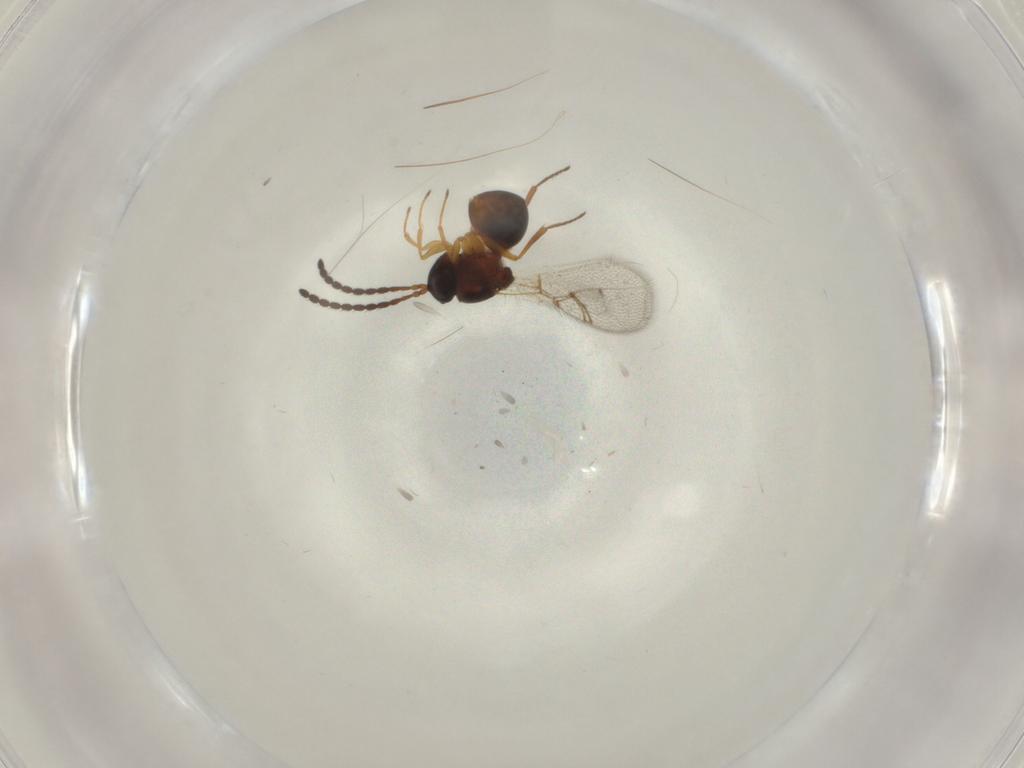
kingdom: Animalia
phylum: Arthropoda
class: Insecta
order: Hymenoptera
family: Figitidae
